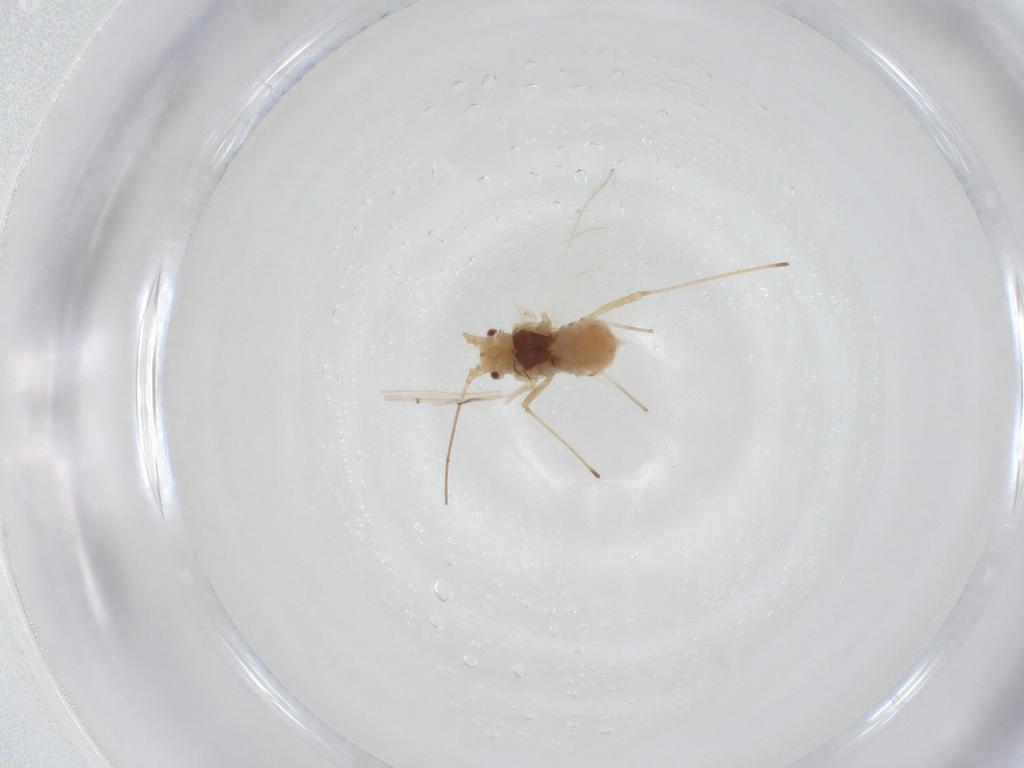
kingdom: Animalia
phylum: Arthropoda
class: Insecta
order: Hemiptera
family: Aphididae
